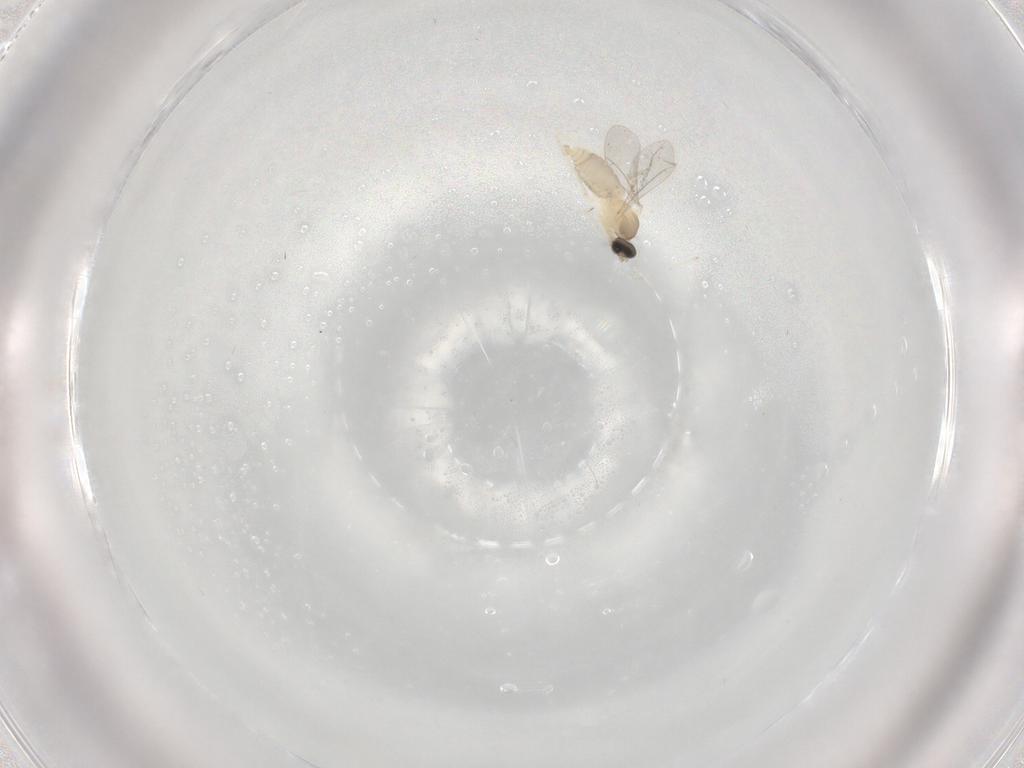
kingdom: Animalia
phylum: Arthropoda
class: Insecta
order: Diptera
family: Cecidomyiidae
